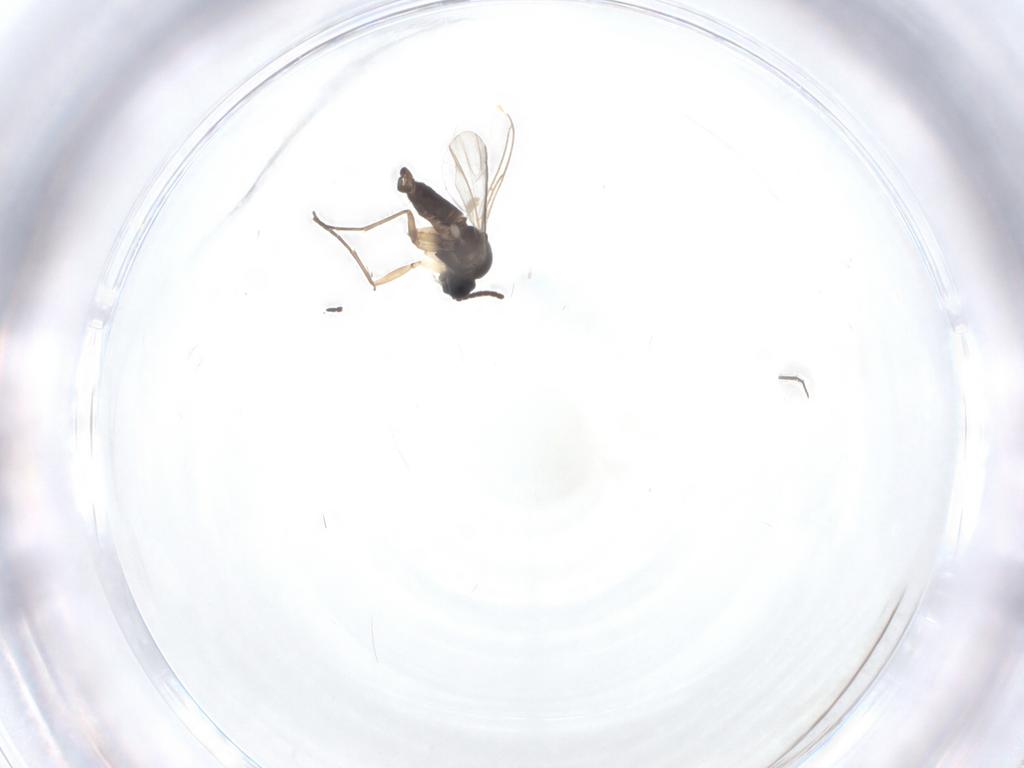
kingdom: Animalia
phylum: Arthropoda
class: Insecta
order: Diptera
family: Sciaridae
